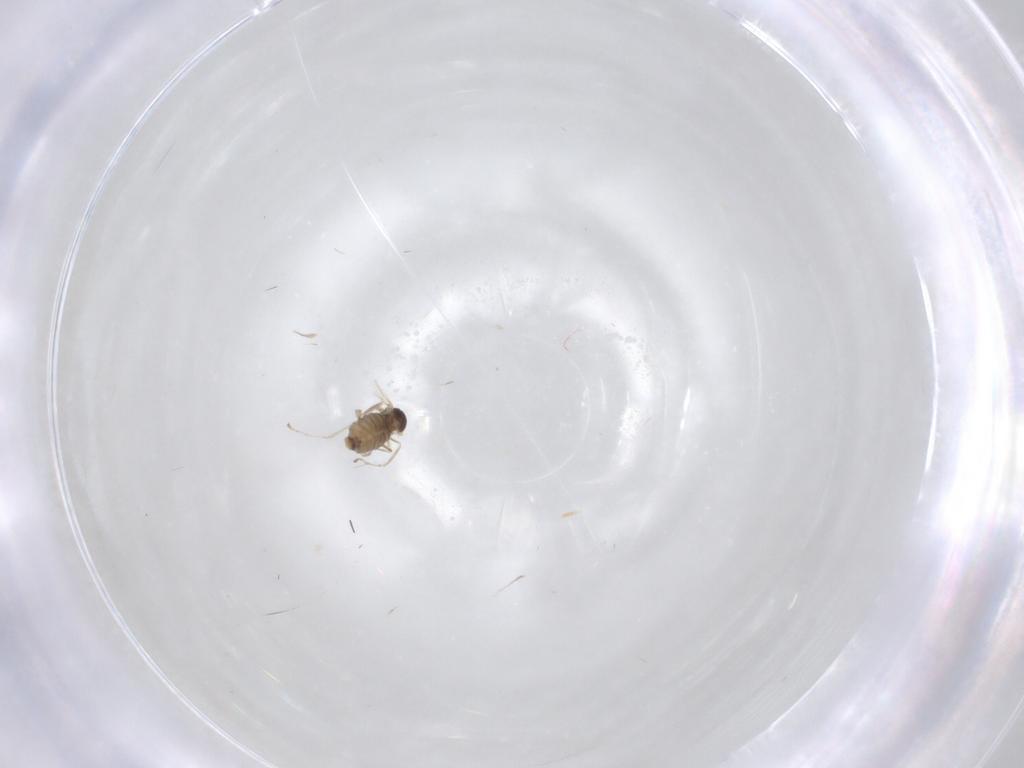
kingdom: Animalia
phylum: Arthropoda
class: Insecta
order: Diptera
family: Cecidomyiidae
